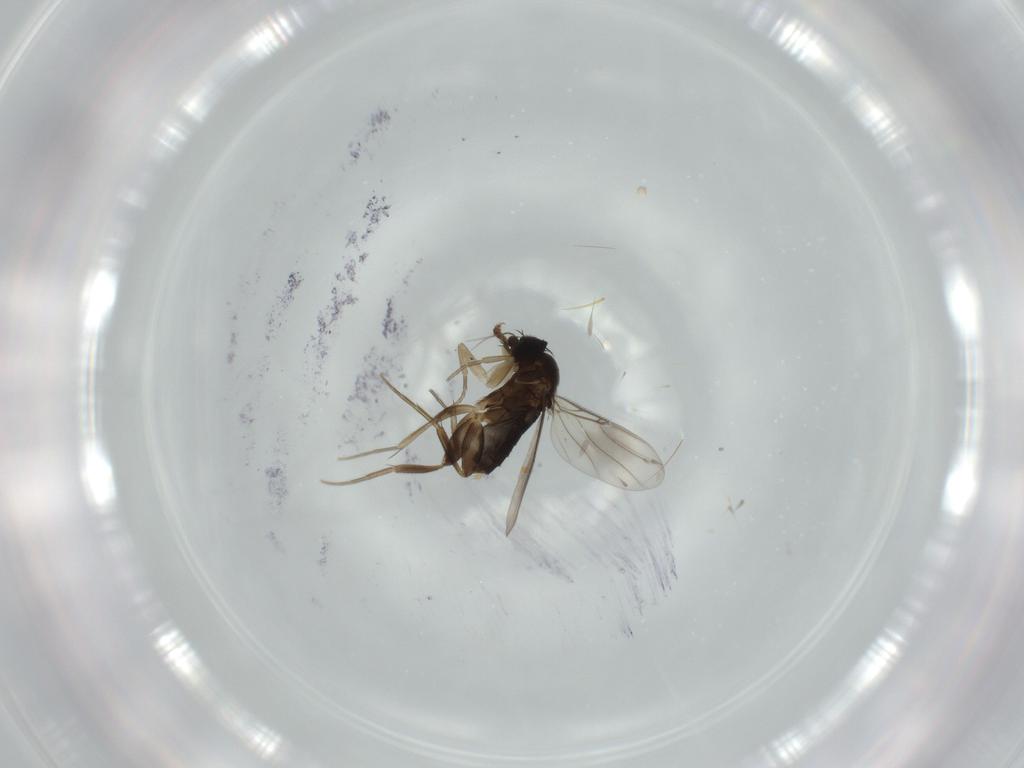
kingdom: Animalia
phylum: Arthropoda
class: Insecta
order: Diptera
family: Phoridae
